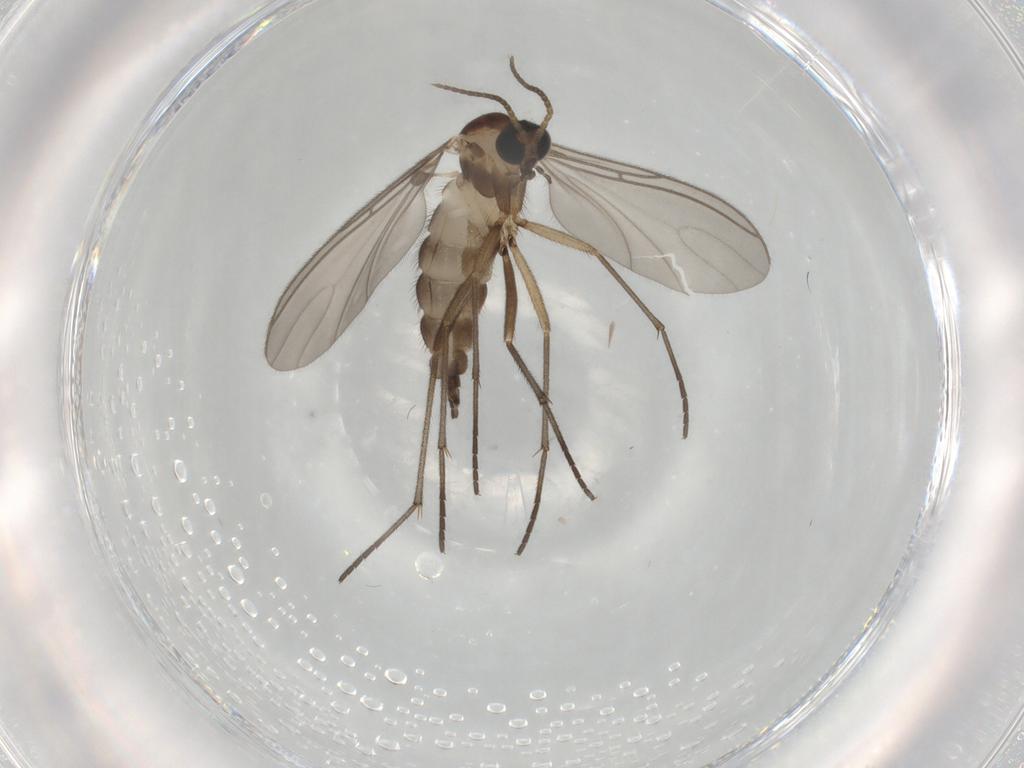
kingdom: Animalia
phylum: Arthropoda
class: Insecta
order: Diptera
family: Sciaridae
